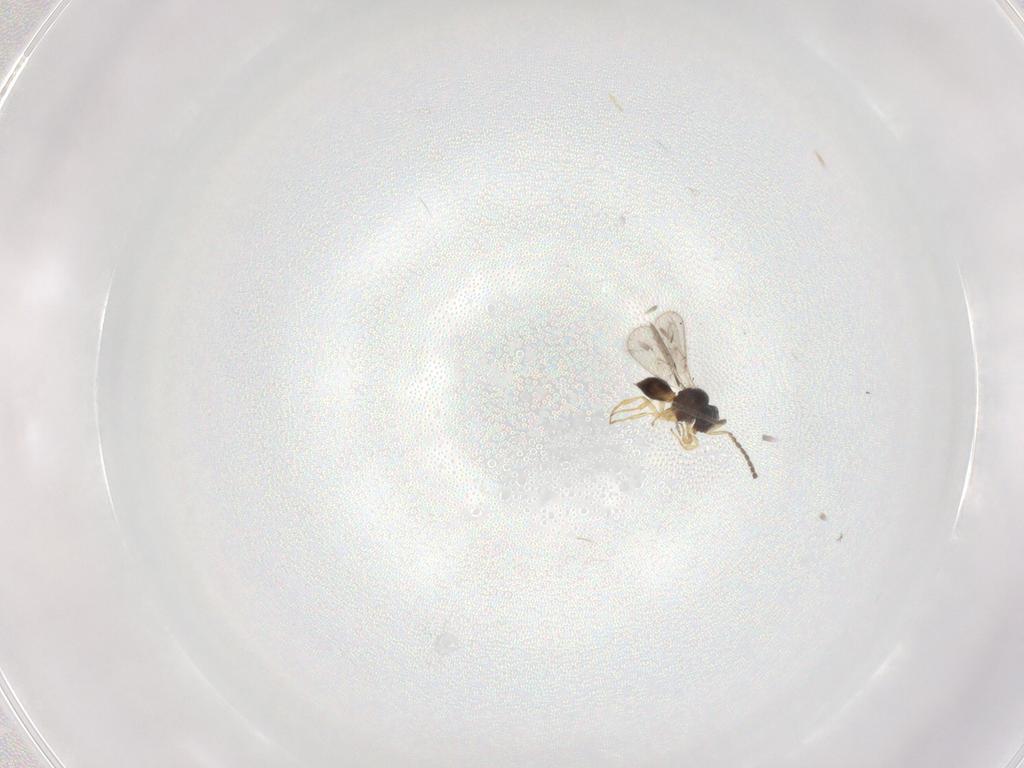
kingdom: Animalia
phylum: Arthropoda
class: Insecta
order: Hymenoptera
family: Scelionidae
